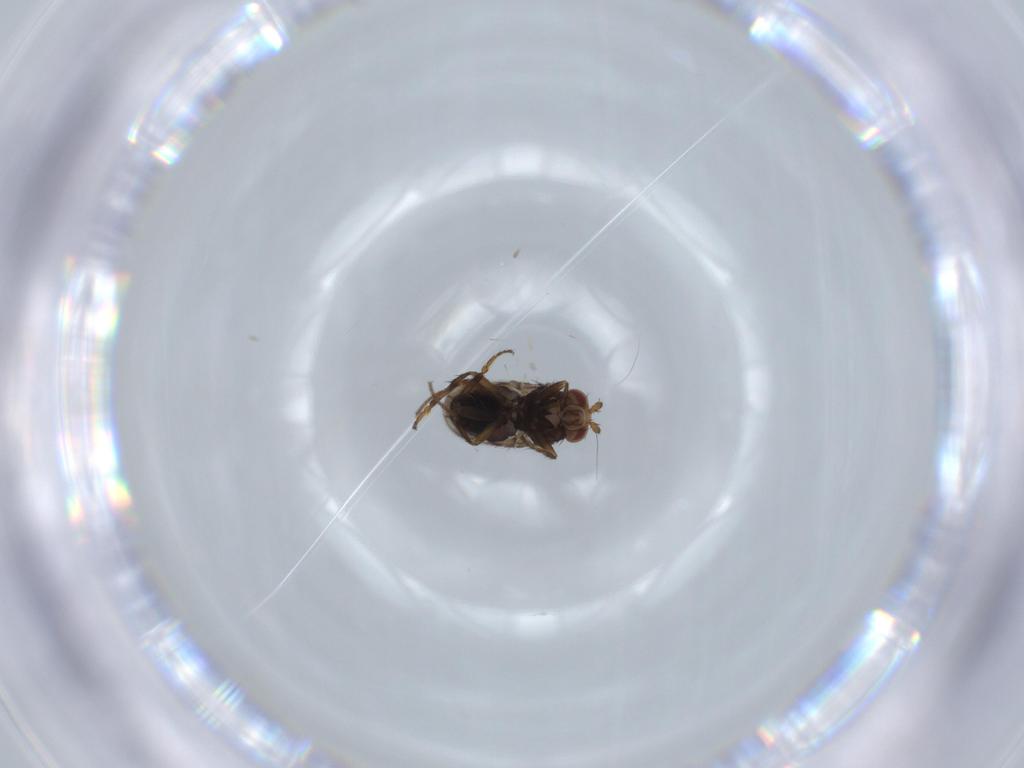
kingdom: Animalia
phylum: Arthropoda
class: Insecta
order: Diptera
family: Sphaeroceridae
